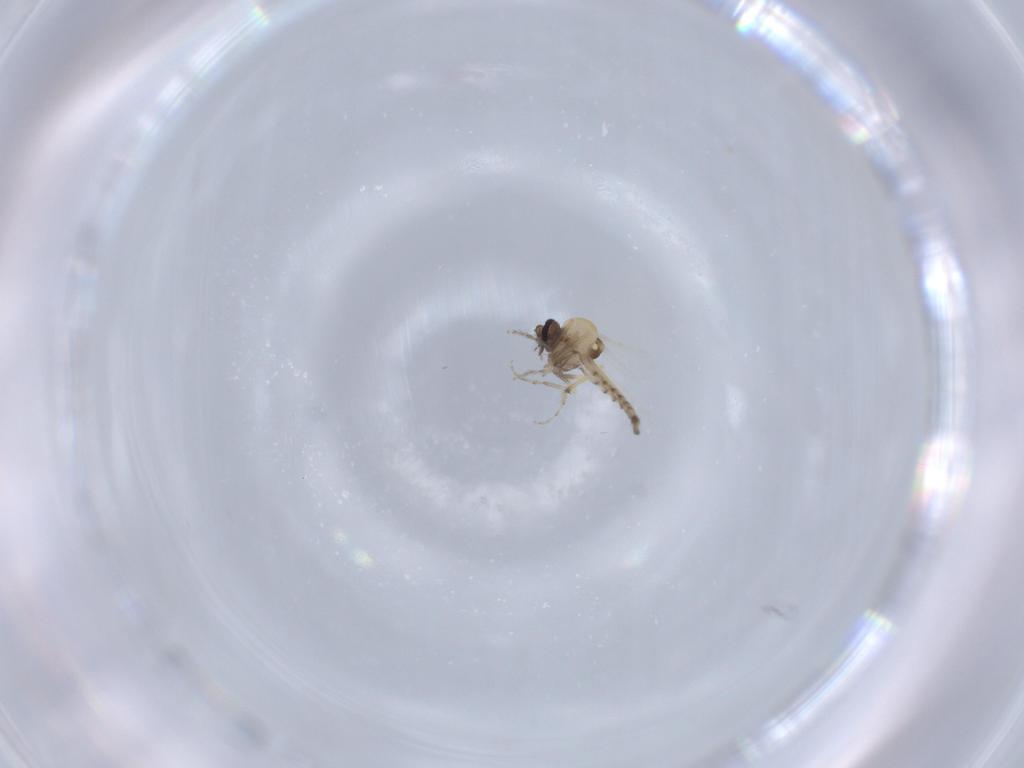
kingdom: Animalia
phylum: Arthropoda
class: Insecta
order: Diptera
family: Ceratopogonidae
